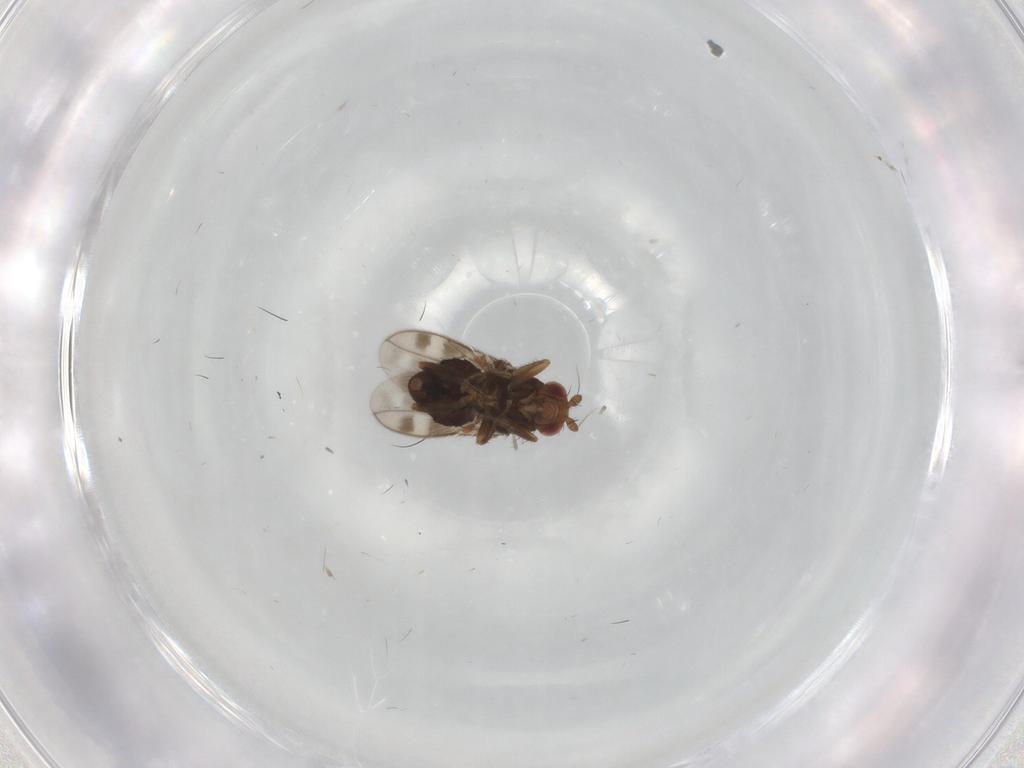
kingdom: Animalia
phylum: Arthropoda
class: Insecta
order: Diptera
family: Sphaeroceridae
